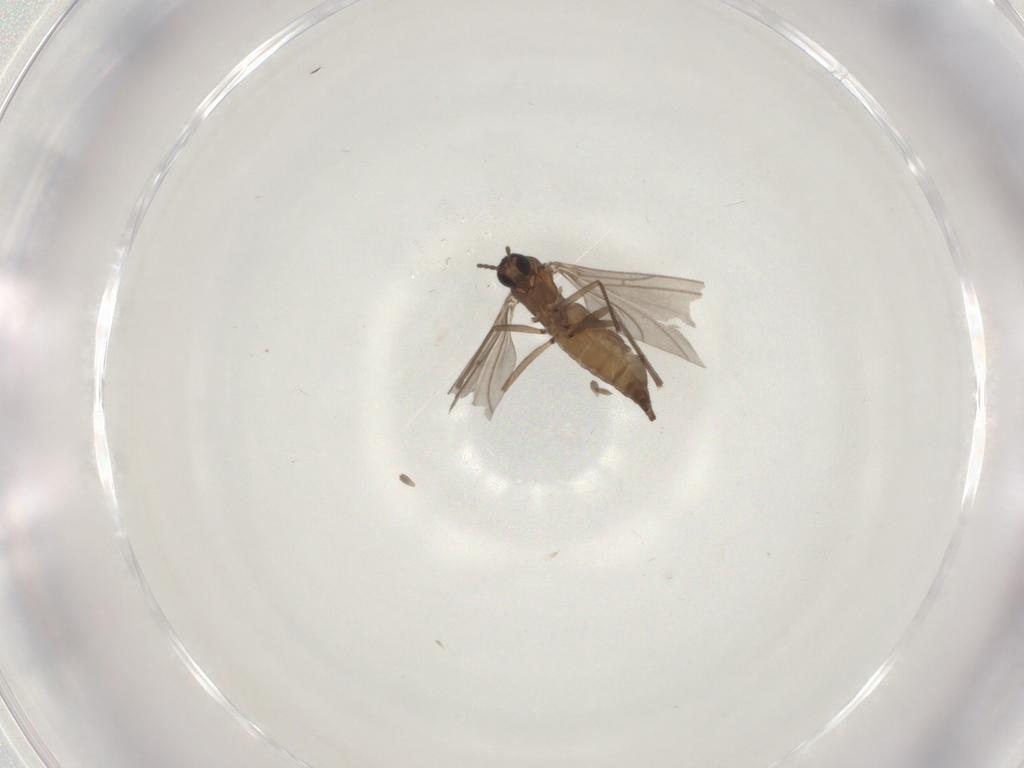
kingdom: Animalia
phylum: Arthropoda
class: Insecta
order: Diptera
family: Sciaridae
